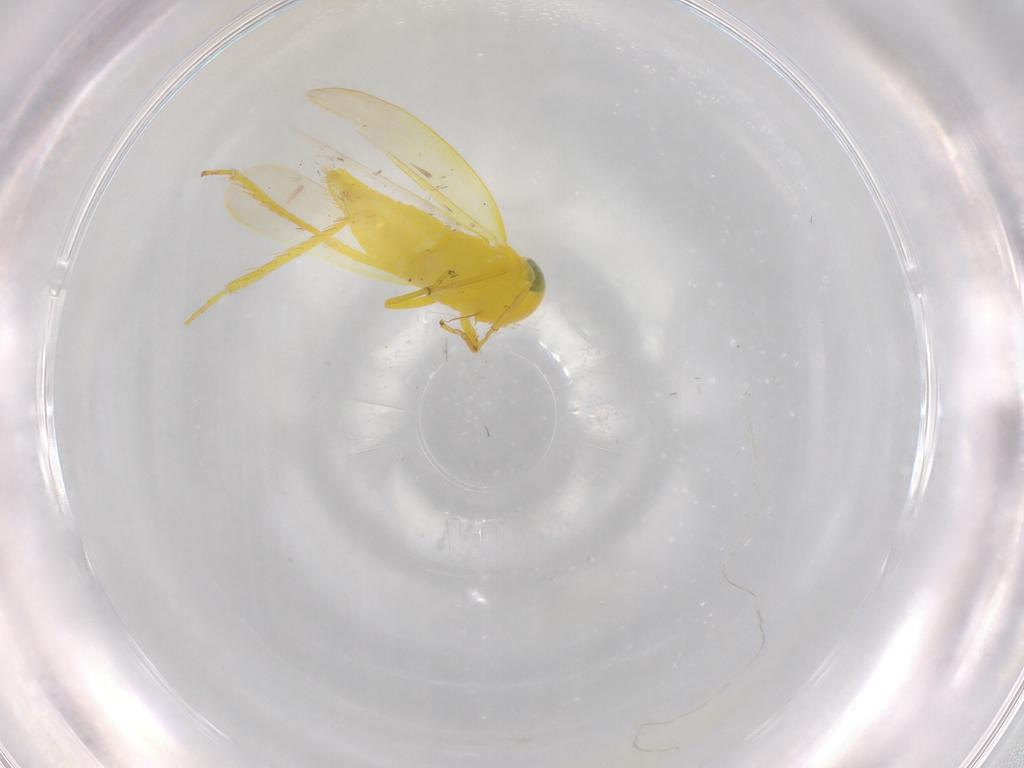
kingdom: Animalia
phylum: Arthropoda
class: Insecta
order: Hemiptera
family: Cicadellidae
